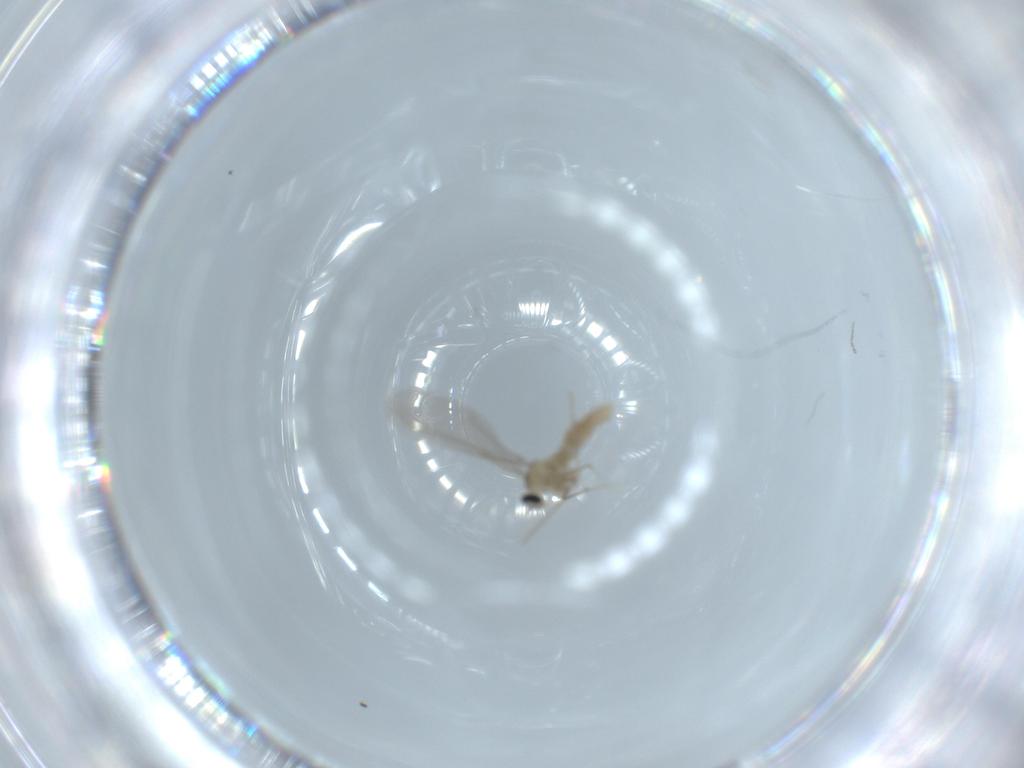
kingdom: Animalia
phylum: Arthropoda
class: Insecta
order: Diptera
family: Cecidomyiidae
